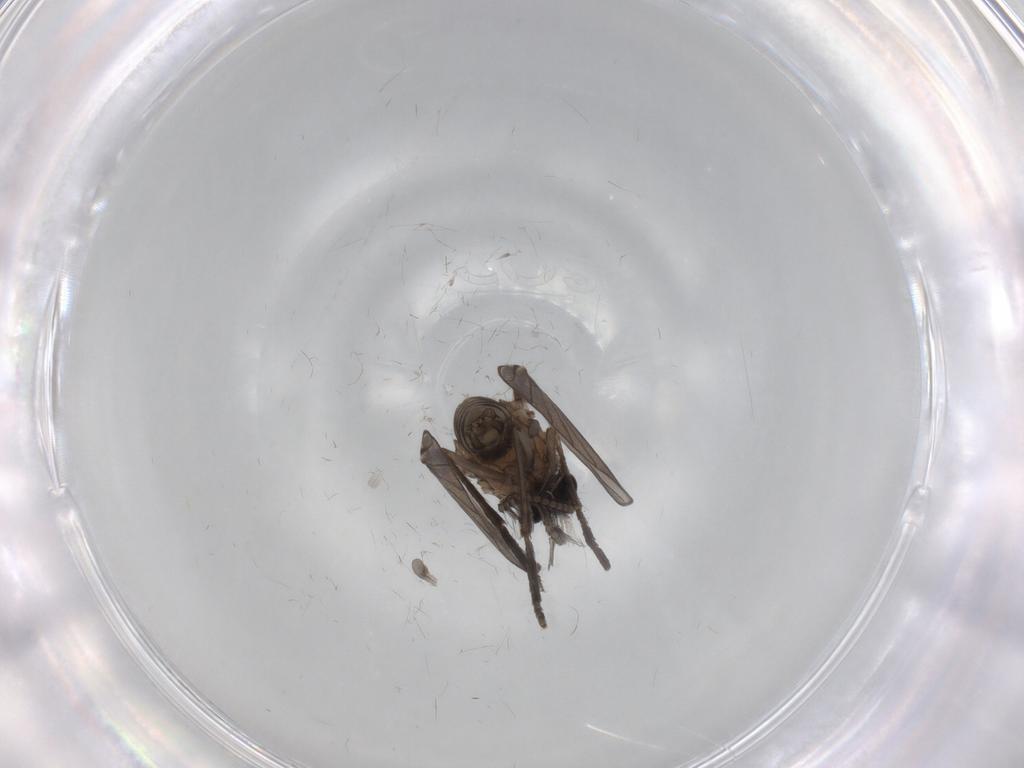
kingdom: Animalia
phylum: Arthropoda
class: Insecta
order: Diptera
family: Psychodidae
